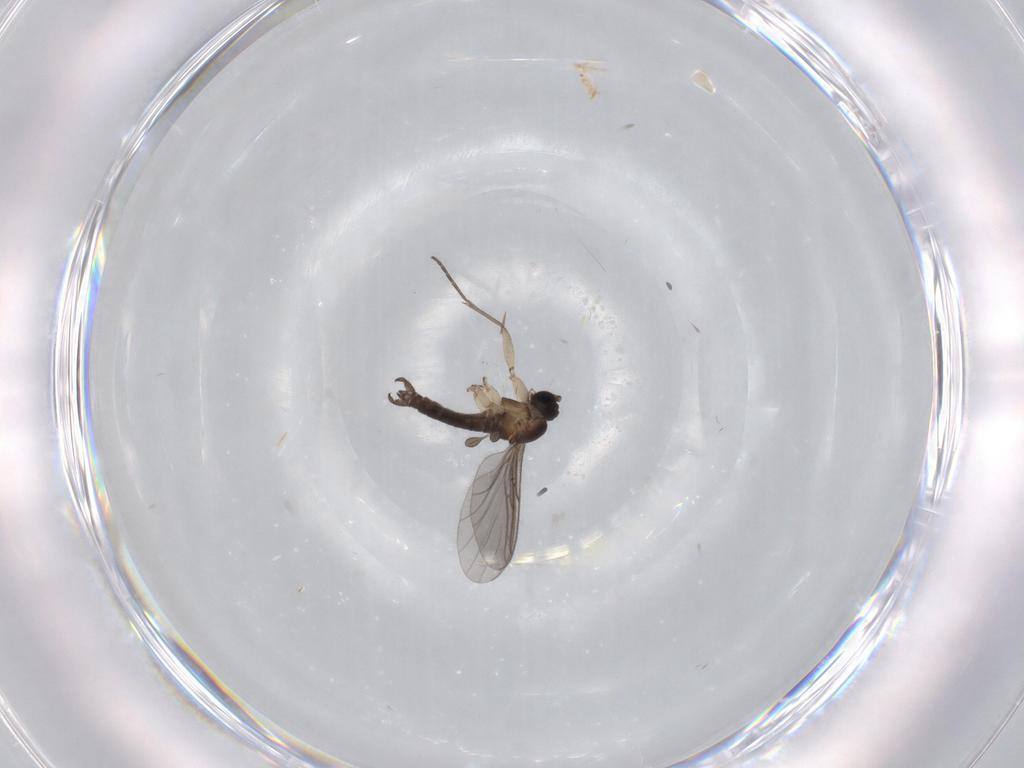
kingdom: Animalia
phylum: Arthropoda
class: Insecta
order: Diptera
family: Sciaridae
